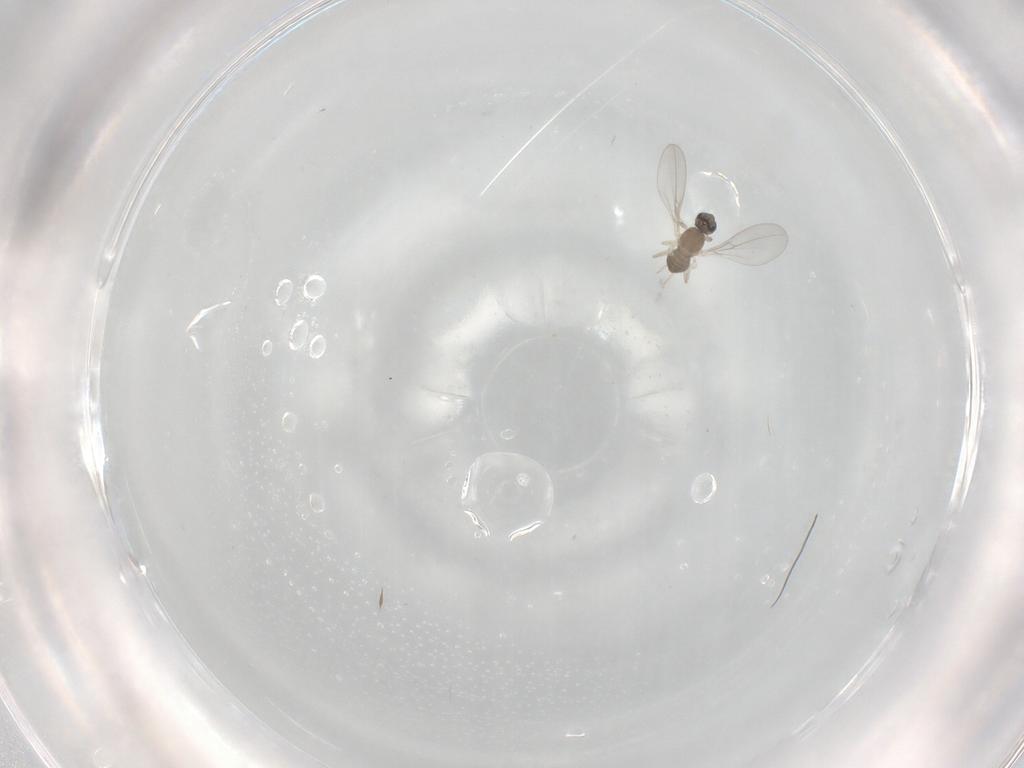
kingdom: Animalia
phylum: Arthropoda
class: Insecta
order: Diptera
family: Cecidomyiidae
